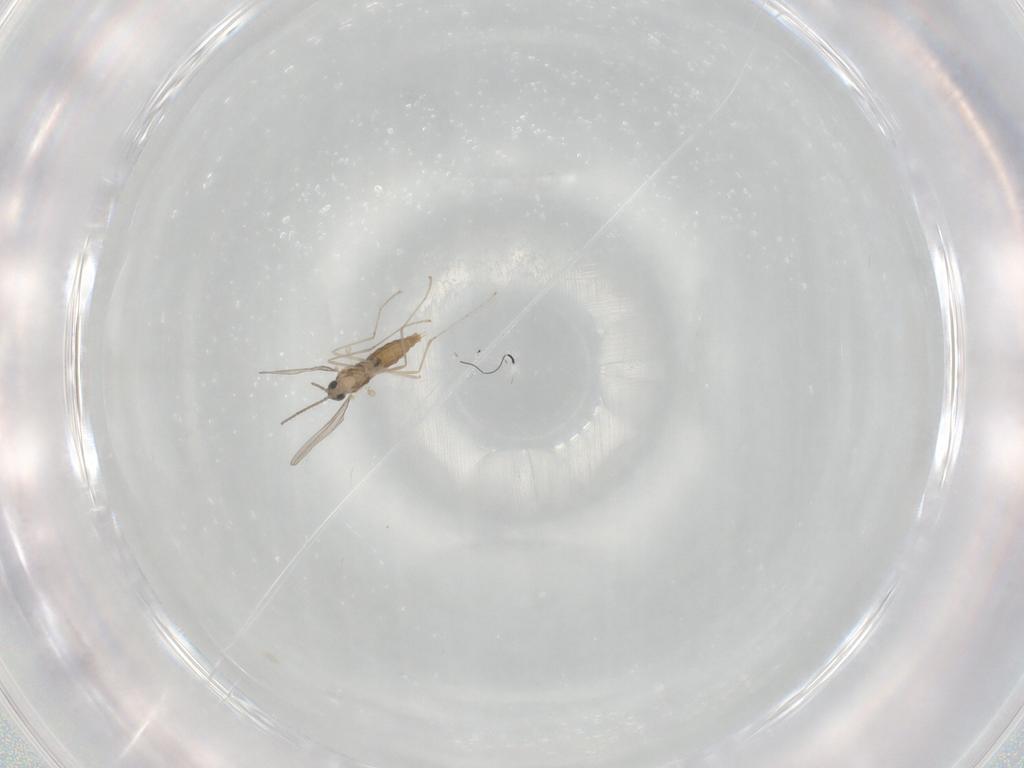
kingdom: Animalia
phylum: Arthropoda
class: Insecta
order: Diptera
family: Sciaridae
